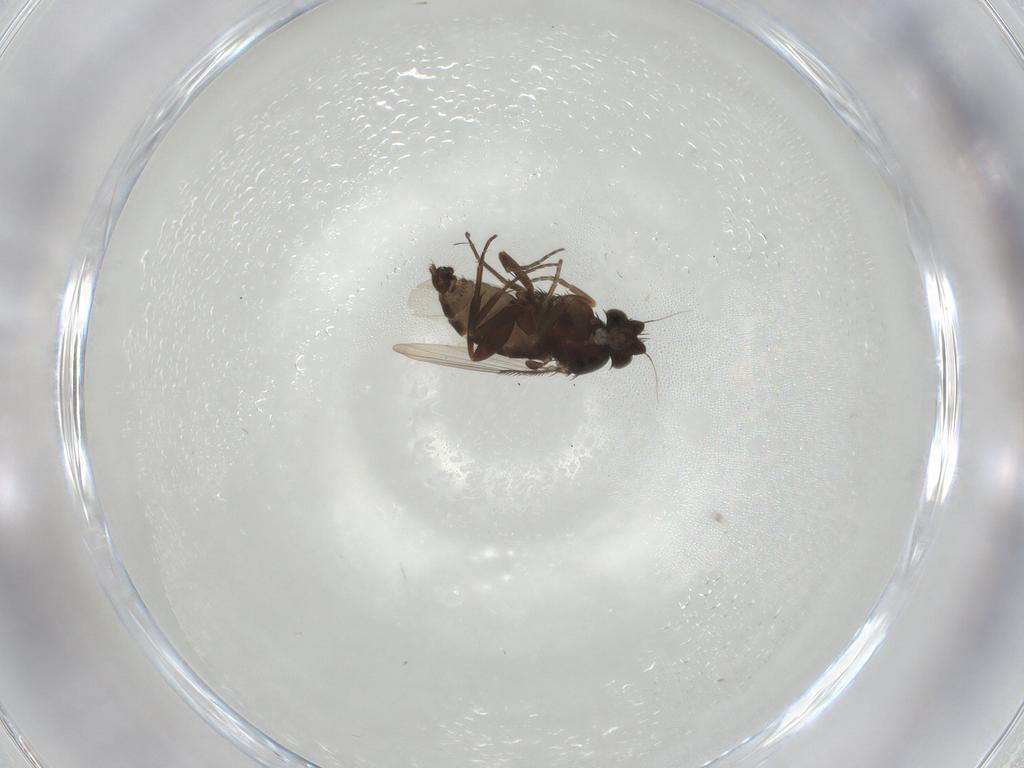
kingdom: Animalia
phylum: Arthropoda
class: Insecta
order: Diptera
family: Phoridae
